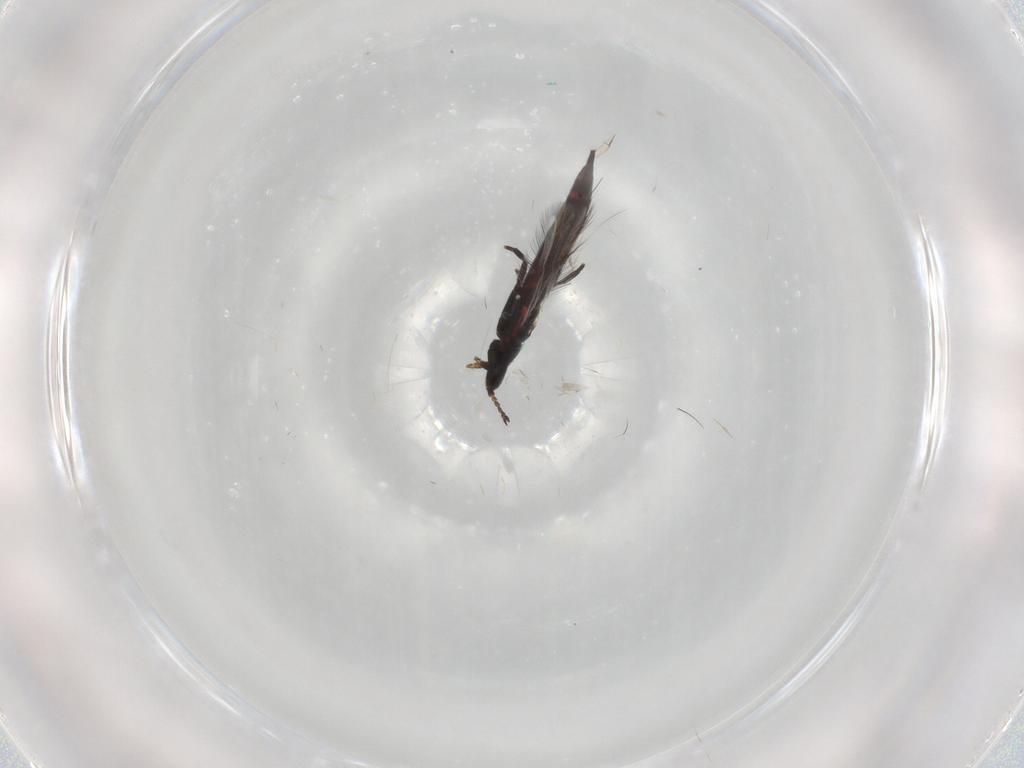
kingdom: Animalia
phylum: Arthropoda
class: Insecta
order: Thysanoptera
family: Phlaeothripidae
